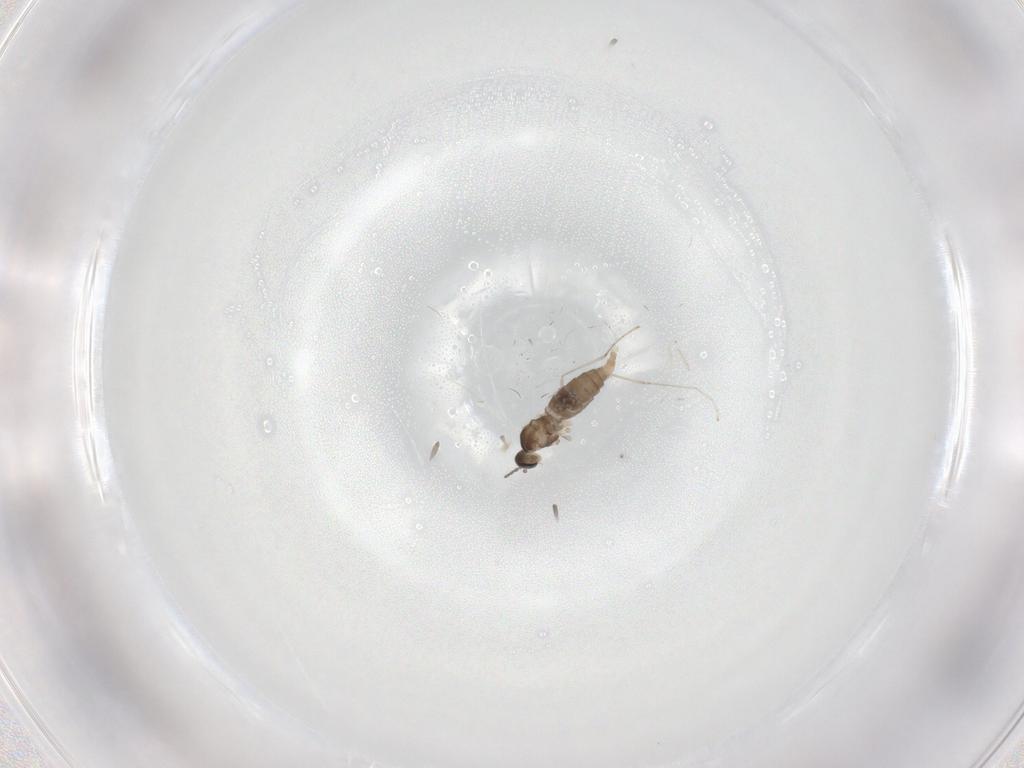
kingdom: Animalia
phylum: Arthropoda
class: Insecta
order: Diptera
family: Cecidomyiidae
